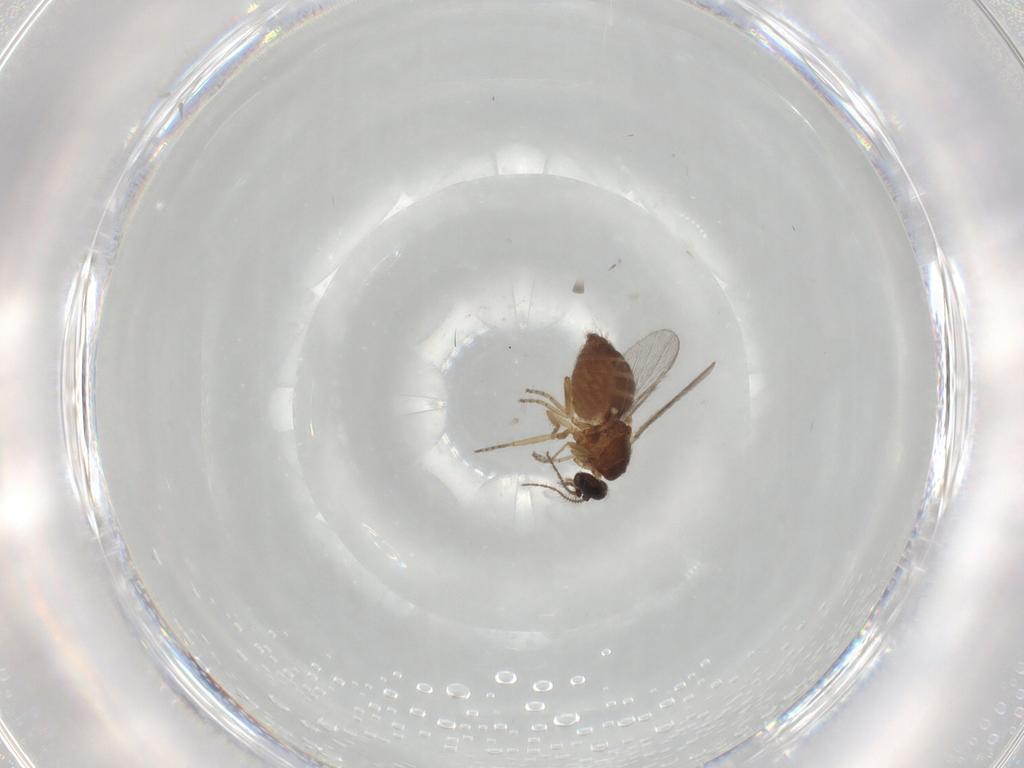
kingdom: Animalia
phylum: Arthropoda
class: Insecta
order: Diptera
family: Ceratopogonidae
